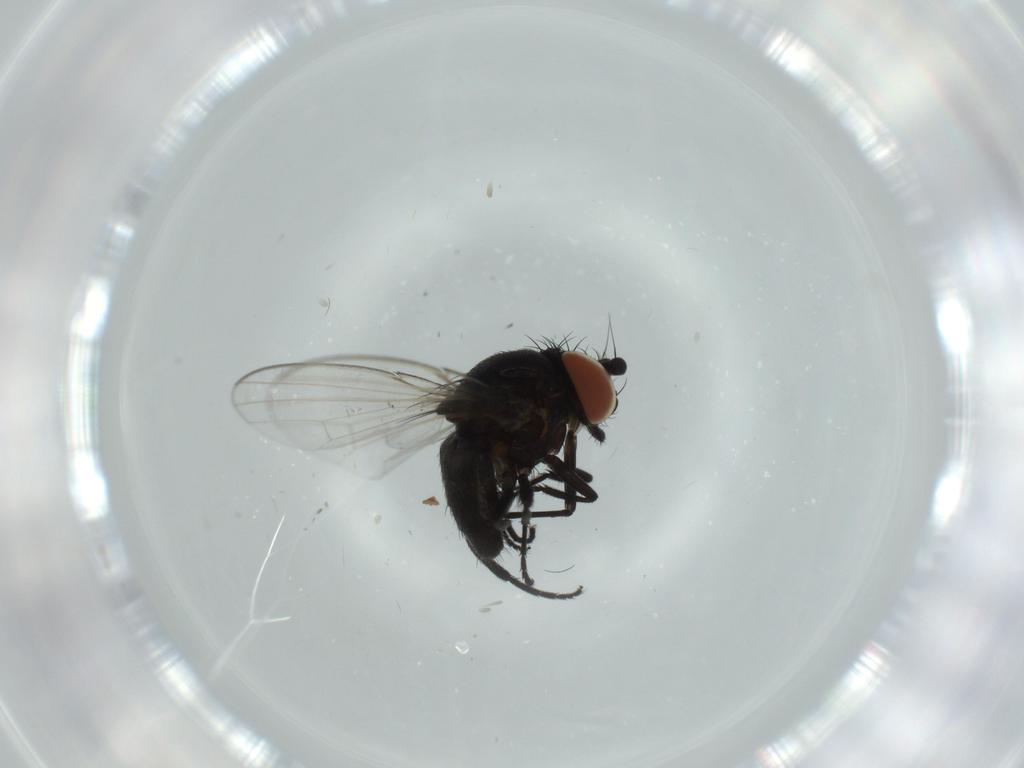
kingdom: Animalia
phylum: Arthropoda
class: Insecta
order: Diptera
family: Milichiidae
